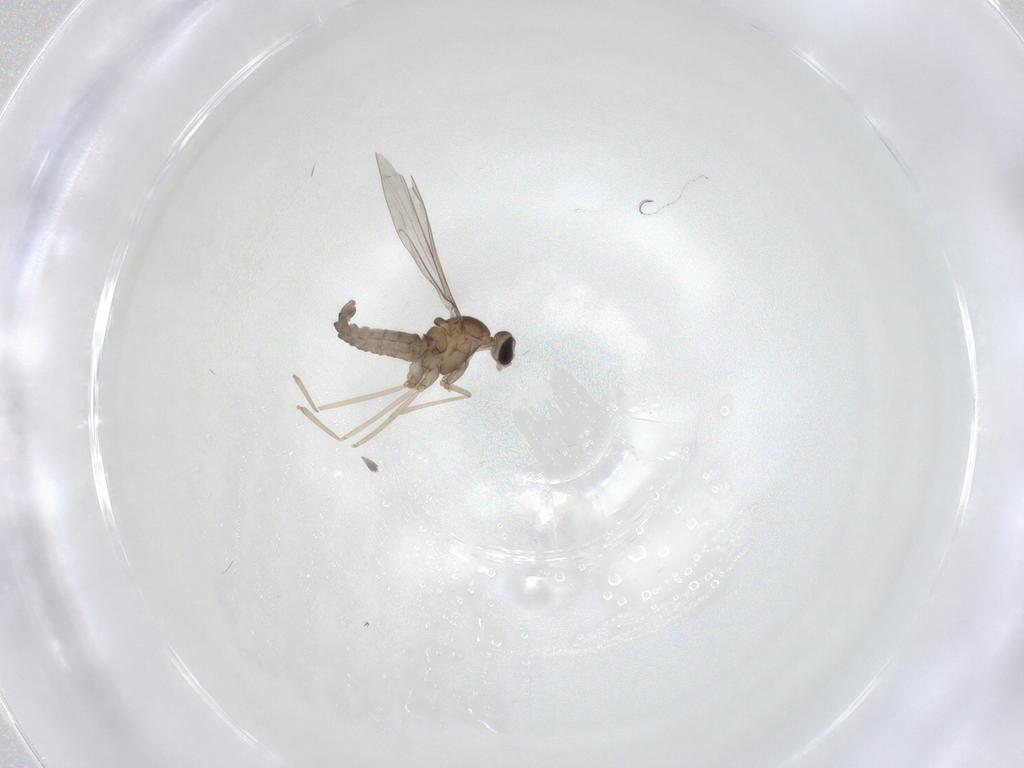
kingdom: Animalia
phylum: Arthropoda
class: Insecta
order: Diptera
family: Cecidomyiidae
